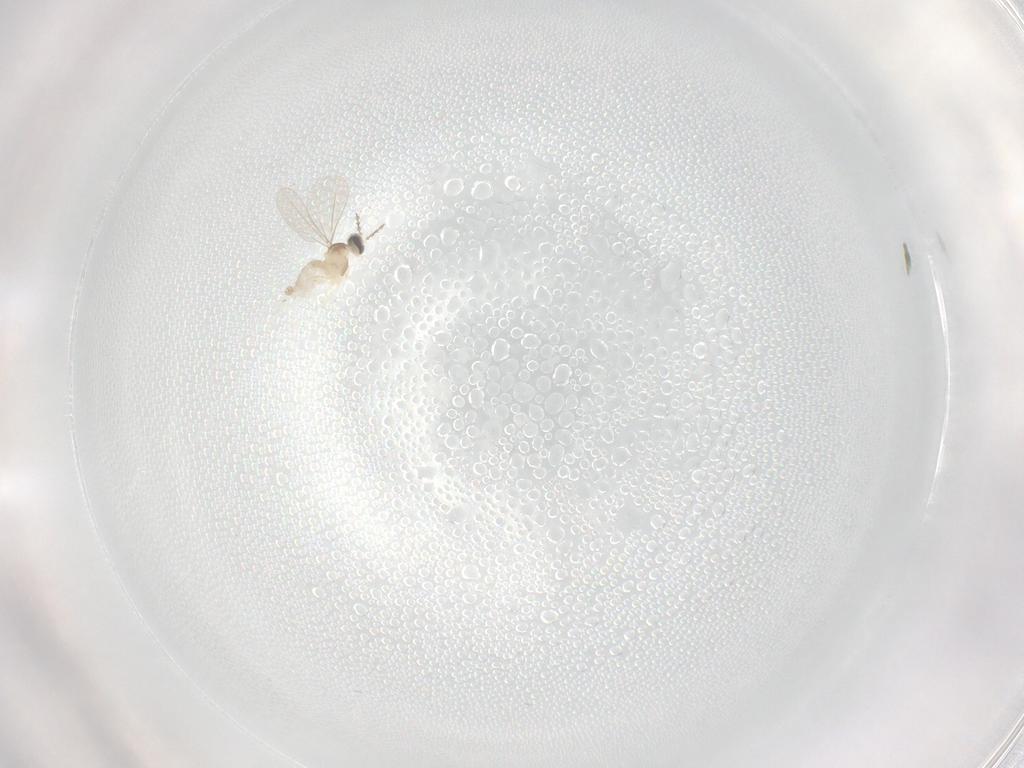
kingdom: Animalia
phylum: Arthropoda
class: Insecta
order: Diptera
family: Cecidomyiidae
